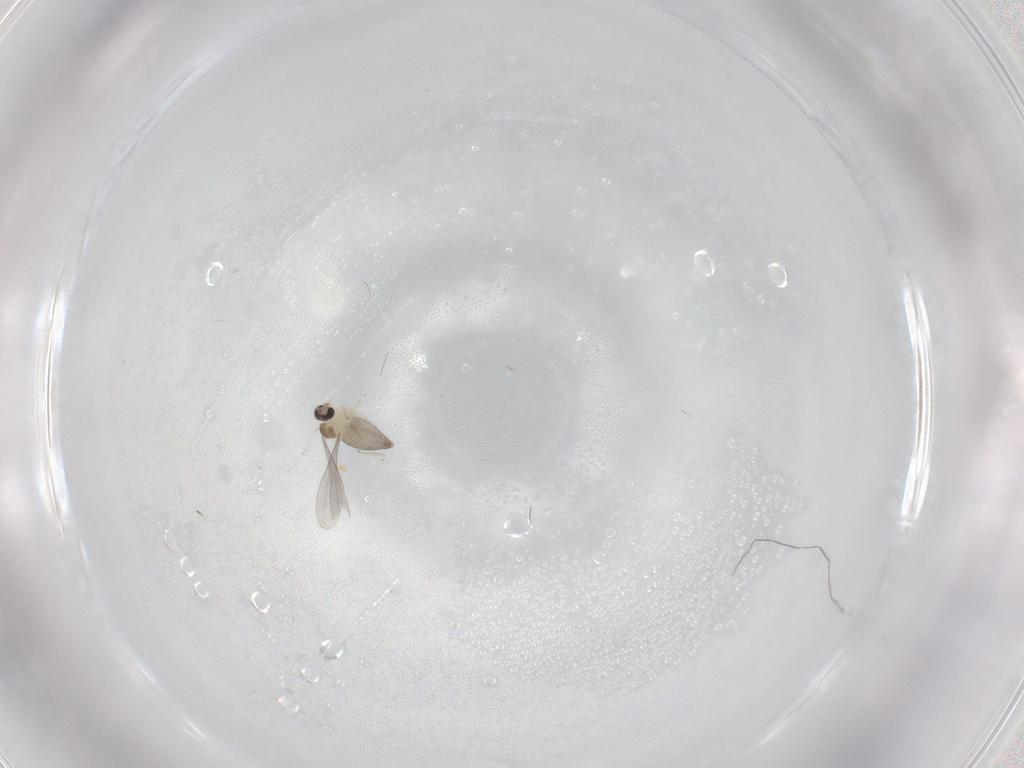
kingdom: Animalia
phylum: Arthropoda
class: Insecta
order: Diptera
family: Cecidomyiidae
